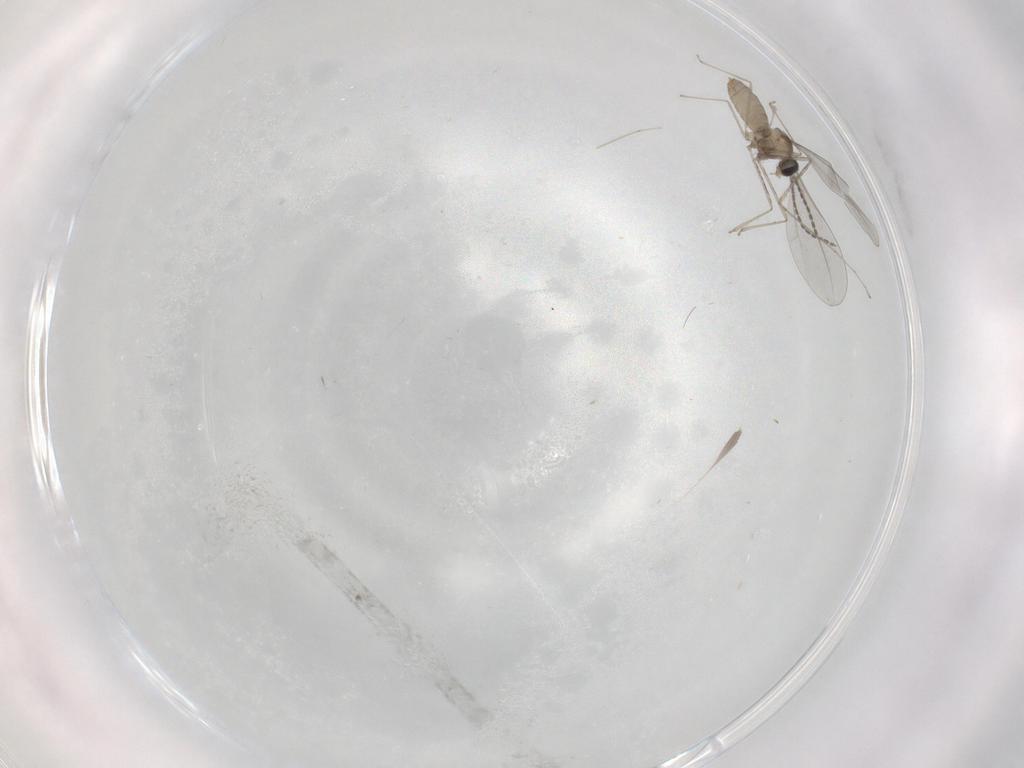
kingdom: Animalia
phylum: Arthropoda
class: Insecta
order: Diptera
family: Cecidomyiidae
